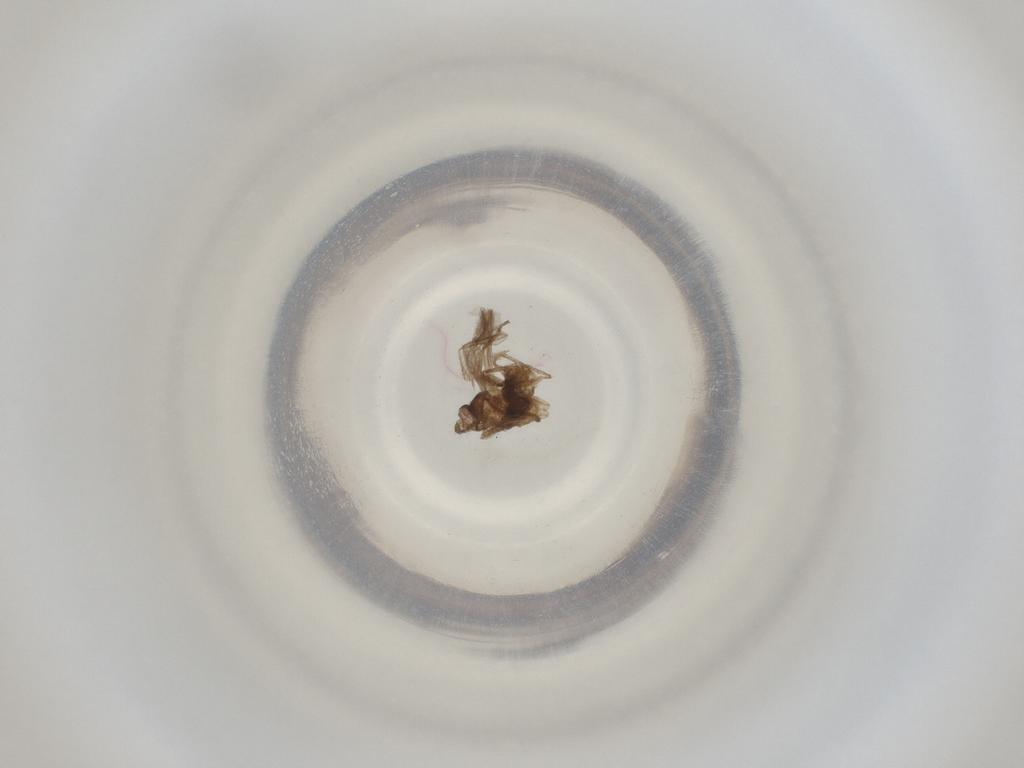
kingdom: Animalia
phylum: Arthropoda
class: Insecta
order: Diptera
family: Cecidomyiidae
